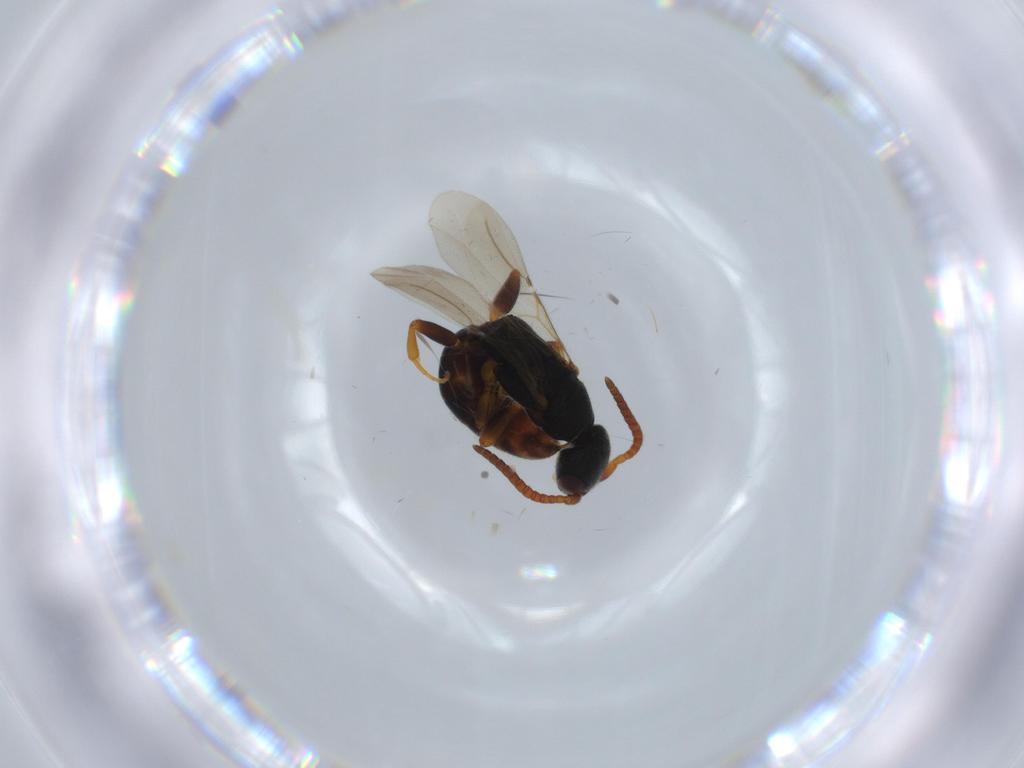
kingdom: Animalia
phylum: Arthropoda
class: Insecta
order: Hymenoptera
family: Bethylidae
